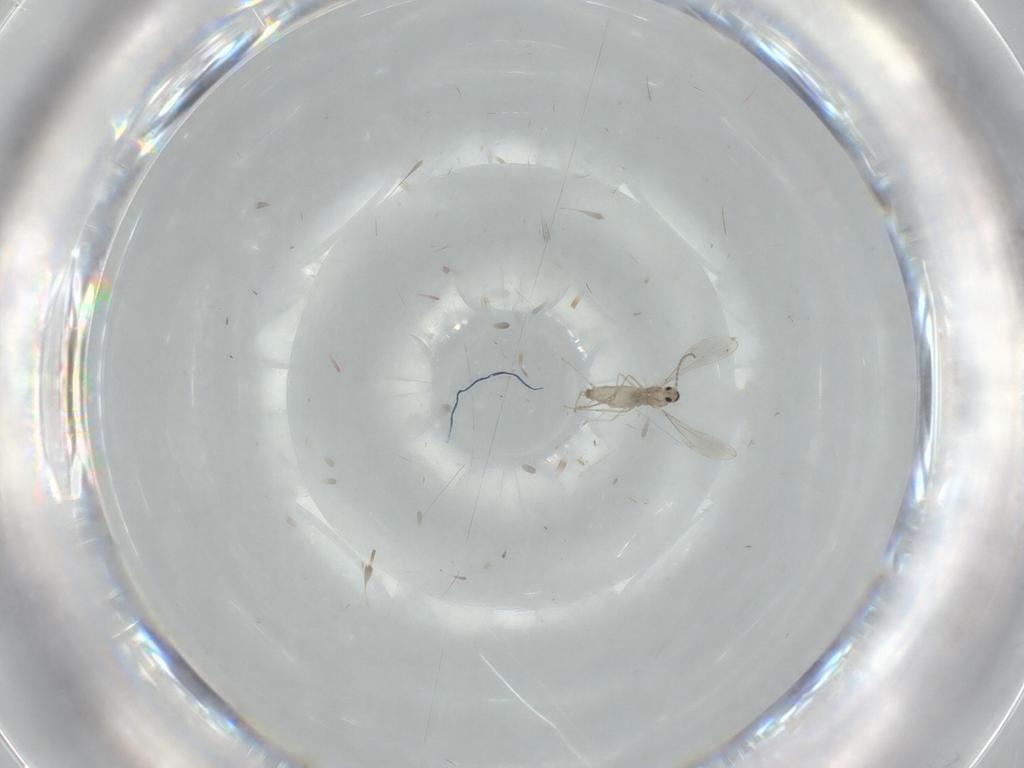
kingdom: Animalia
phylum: Arthropoda
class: Insecta
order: Diptera
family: Cecidomyiidae
